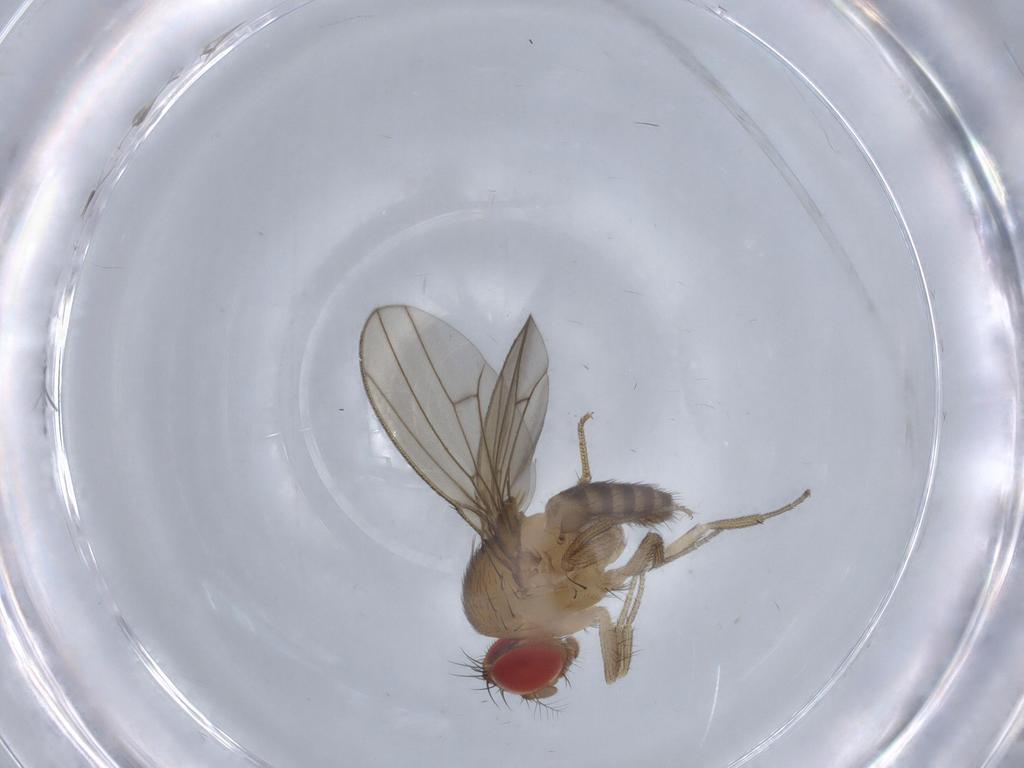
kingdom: Animalia
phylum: Arthropoda
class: Insecta
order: Diptera
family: Drosophilidae
